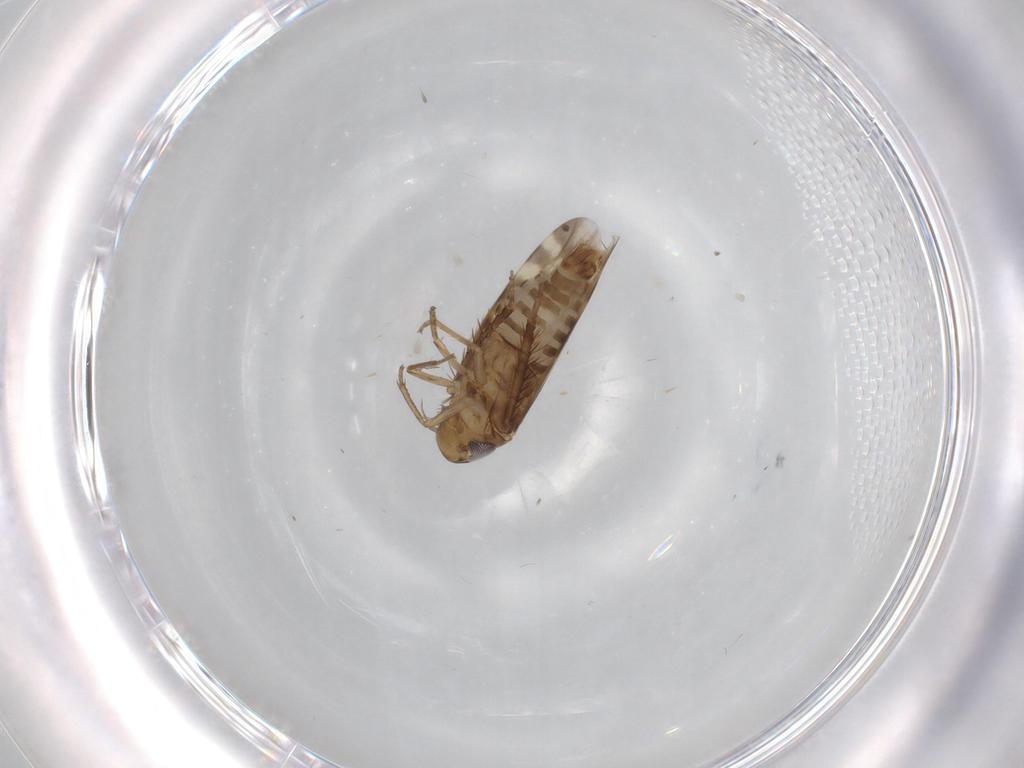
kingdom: Animalia
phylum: Arthropoda
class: Insecta
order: Hemiptera
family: Cicadellidae
